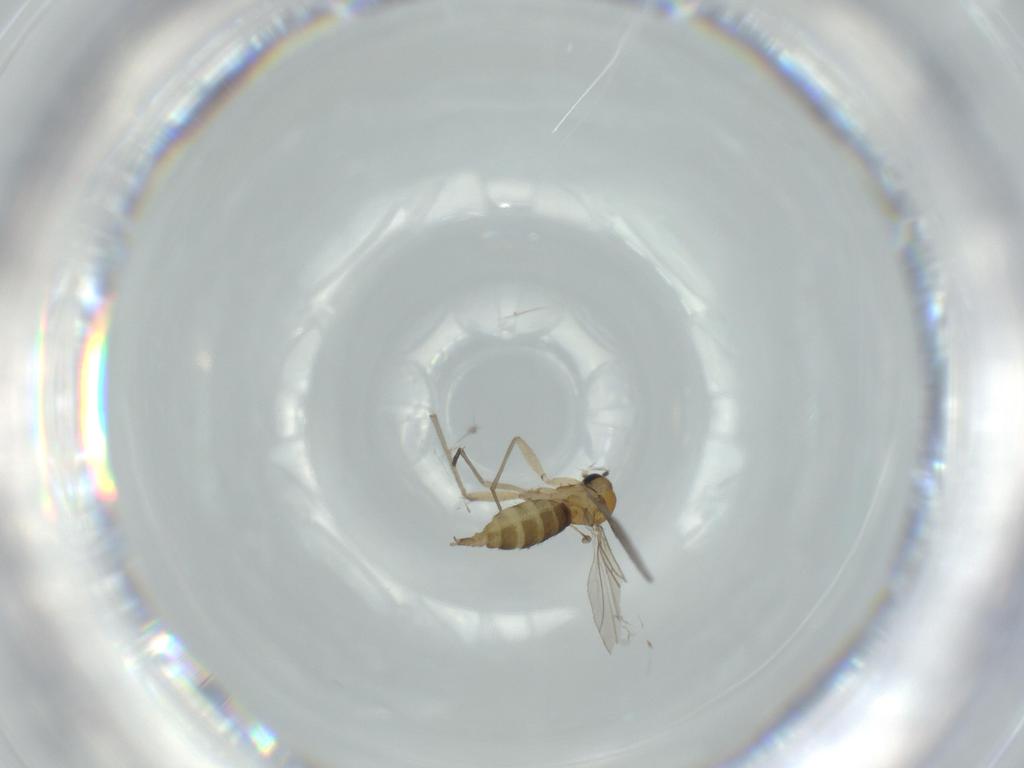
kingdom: Animalia
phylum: Arthropoda
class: Insecta
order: Diptera
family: Sciaridae
